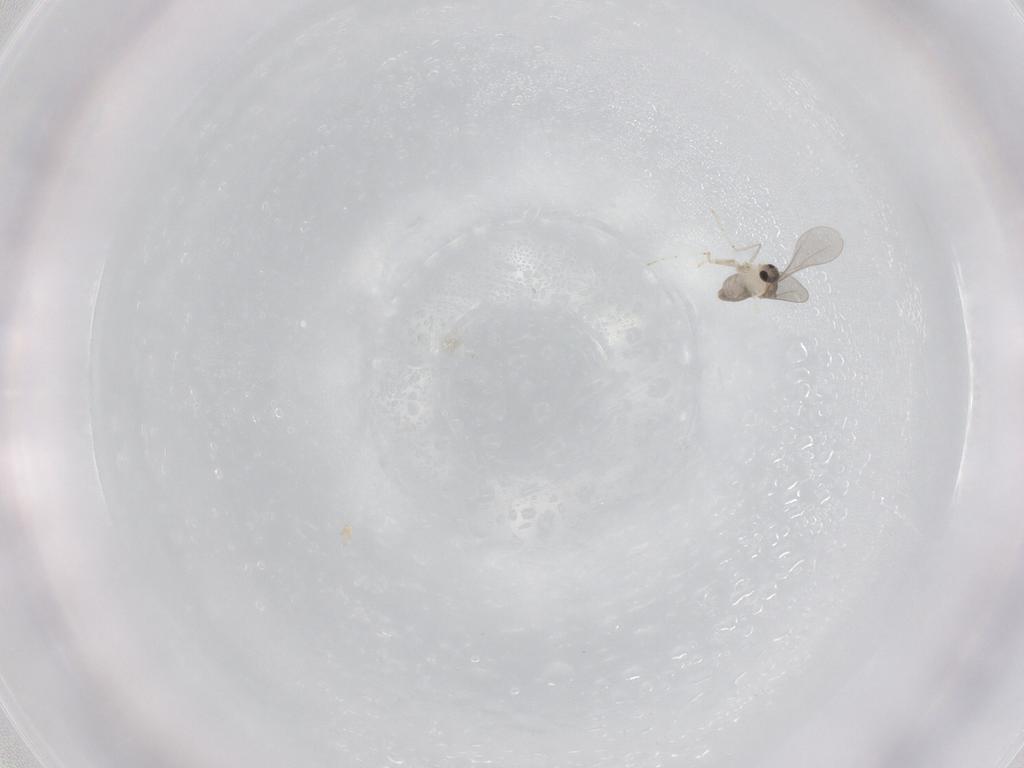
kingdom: Animalia
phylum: Arthropoda
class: Insecta
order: Diptera
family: Cecidomyiidae
